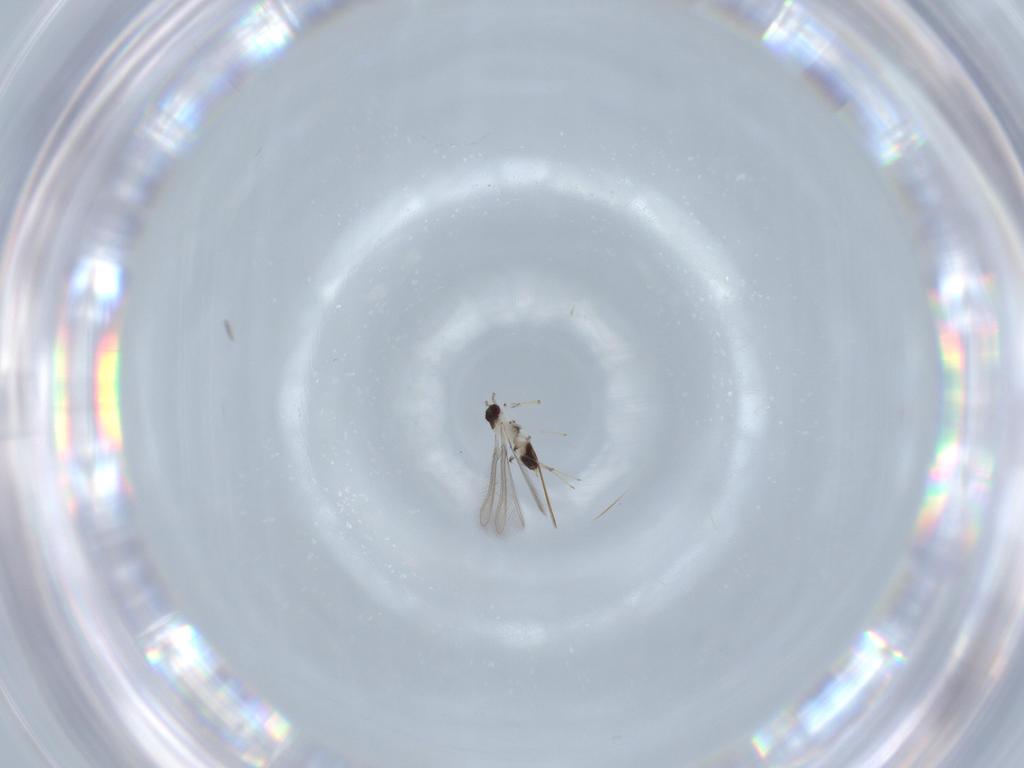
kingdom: Animalia
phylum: Arthropoda
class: Insecta
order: Hymenoptera
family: Mymaridae
